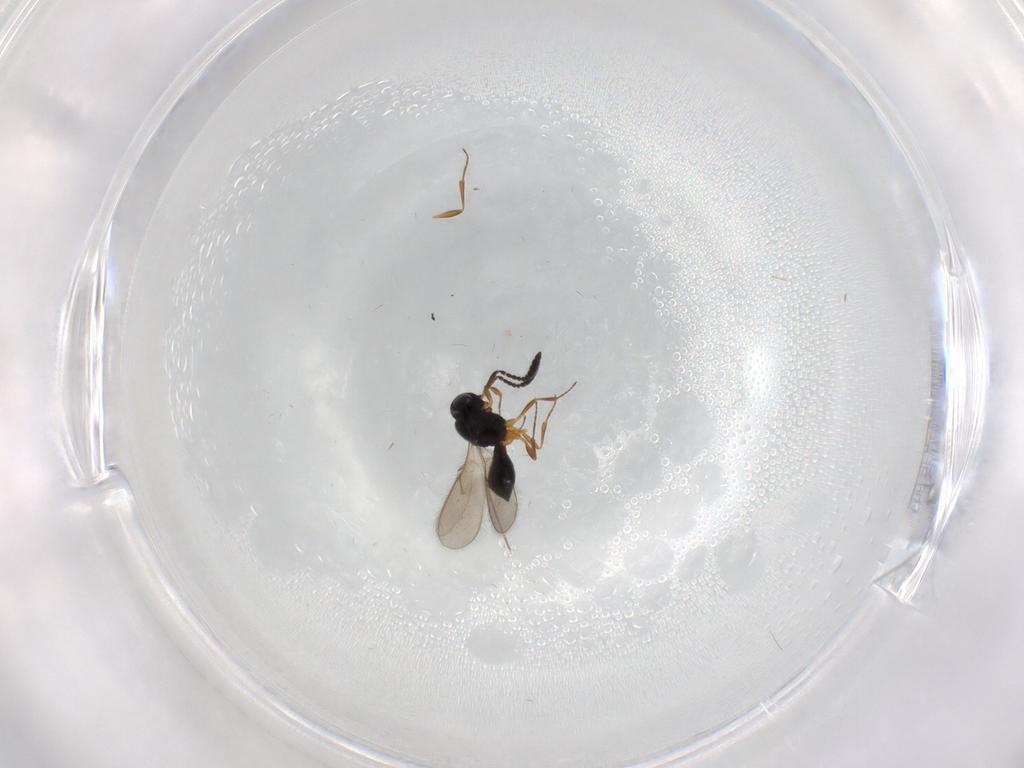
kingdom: Animalia
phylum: Arthropoda
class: Insecta
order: Hymenoptera
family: Scelionidae
